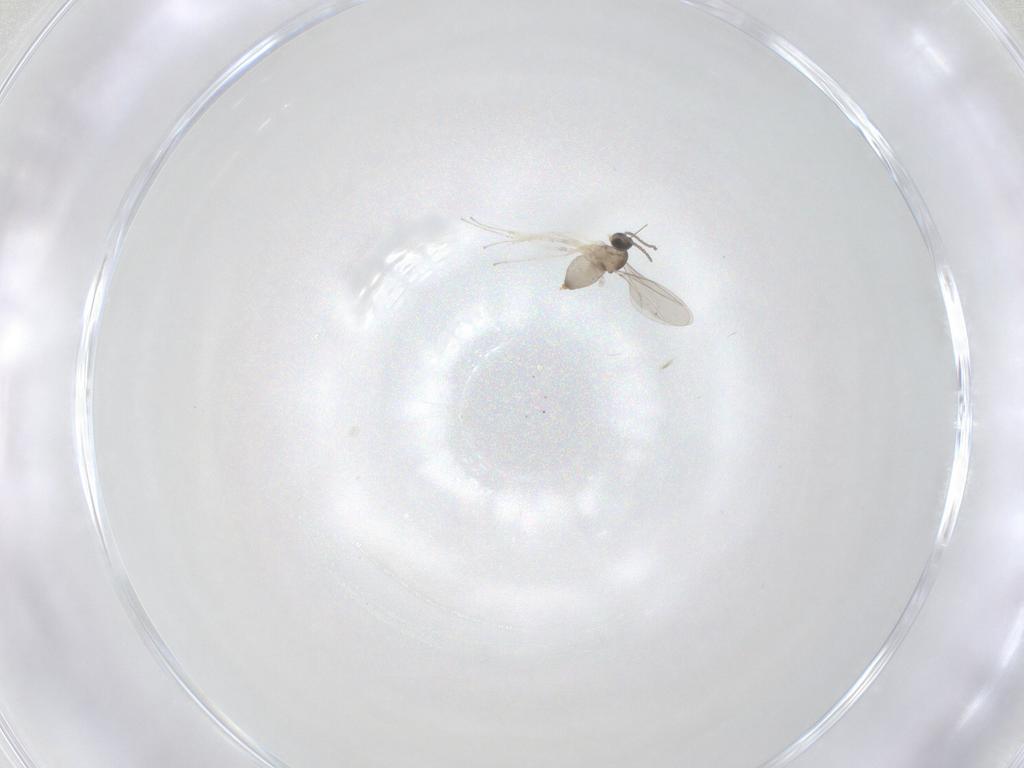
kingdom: Animalia
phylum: Arthropoda
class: Insecta
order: Diptera
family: Cecidomyiidae
